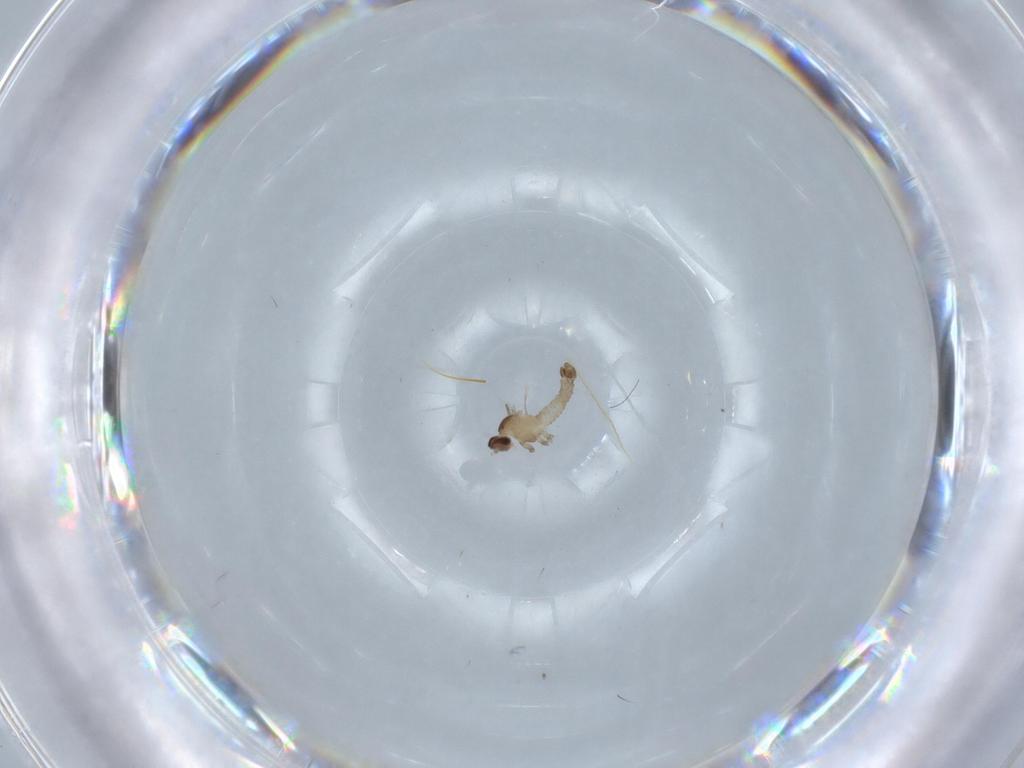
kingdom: Animalia
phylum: Arthropoda
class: Insecta
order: Diptera
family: Cecidomyiidae
